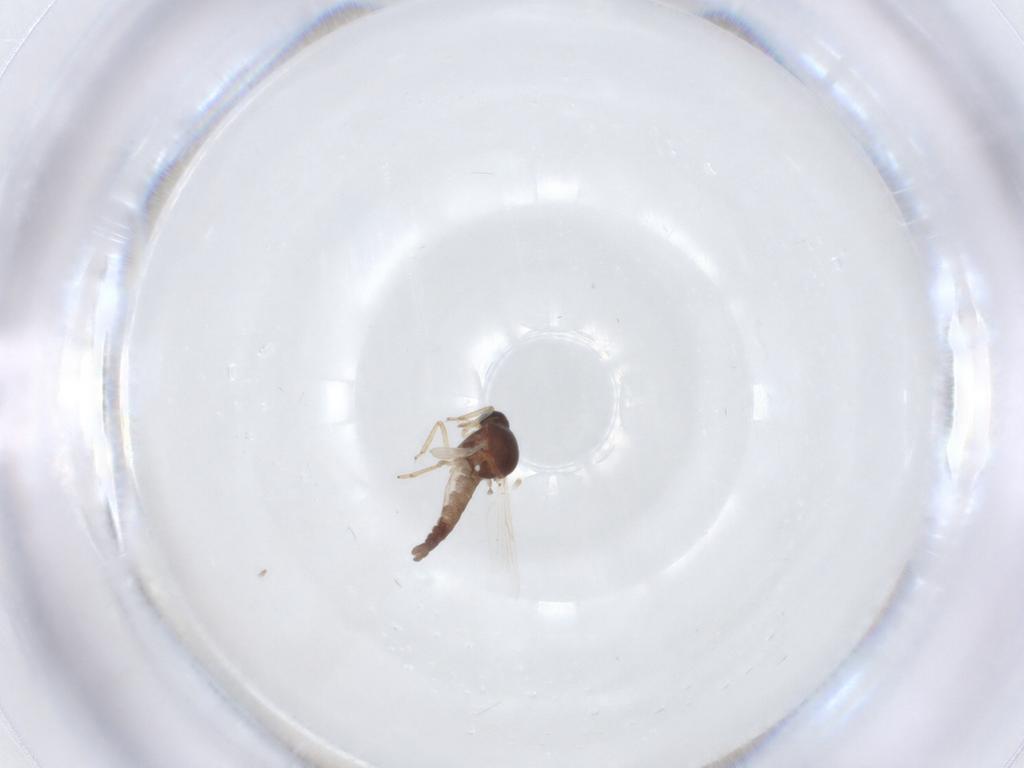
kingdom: Animalia
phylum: Arthropoda
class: Insecta
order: Diptera
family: Ceratopogonidae
